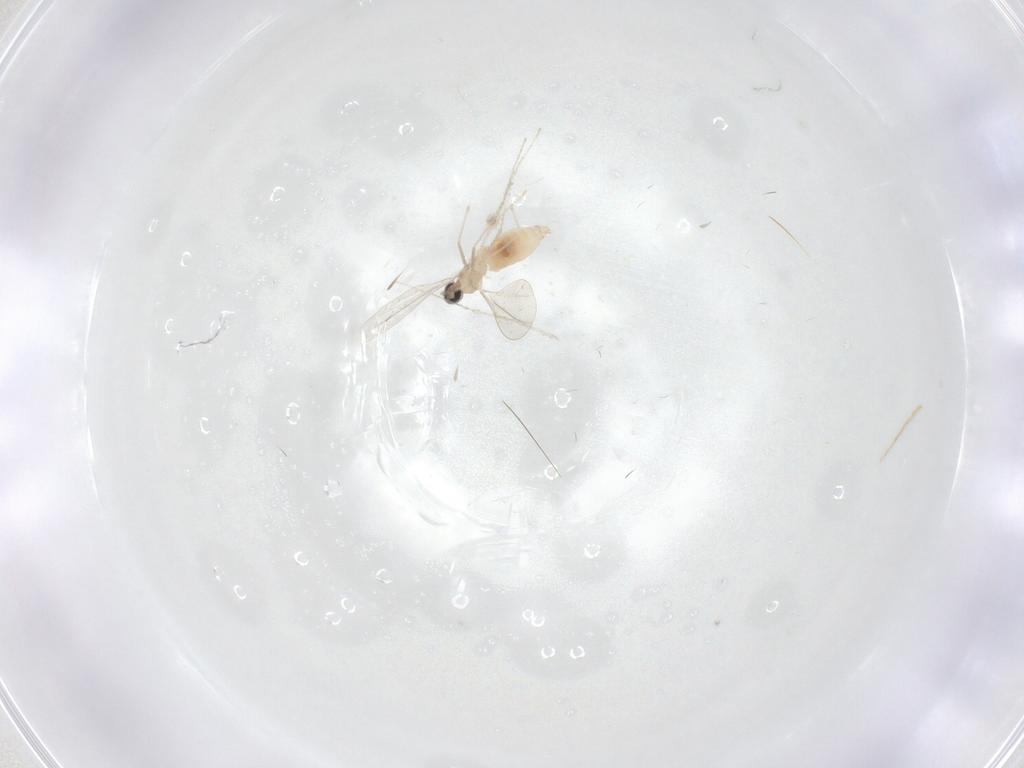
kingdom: Animalia
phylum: Arthropoda
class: Insecta
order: Diptera
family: Cecidomyiidae
